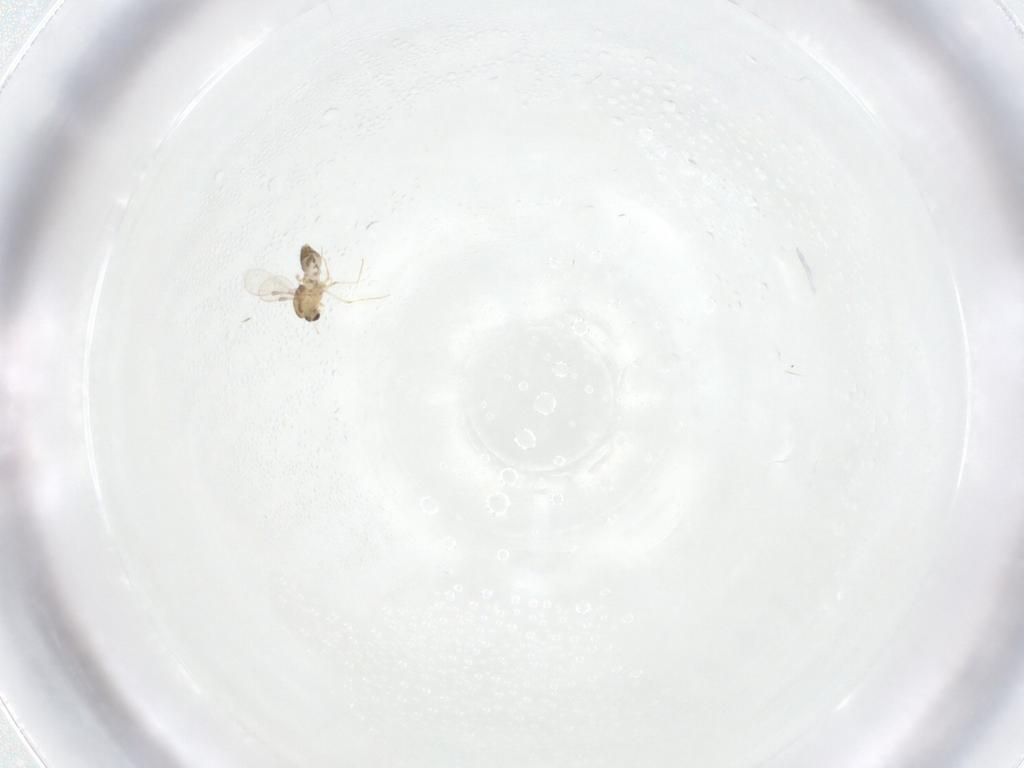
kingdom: Animalia
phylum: Arthropoda
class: Insecta
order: Diptera
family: Chironomidae
